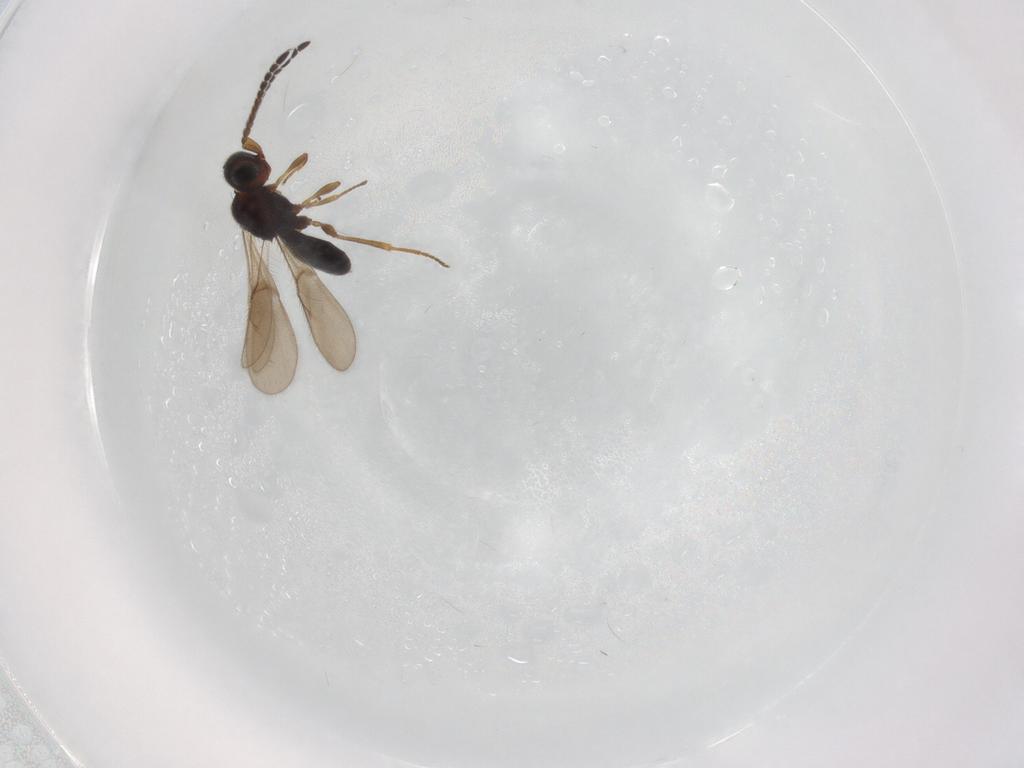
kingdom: Animalia
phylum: Arthropoda
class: Insecta
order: Hymenoptera
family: Scelionidae
